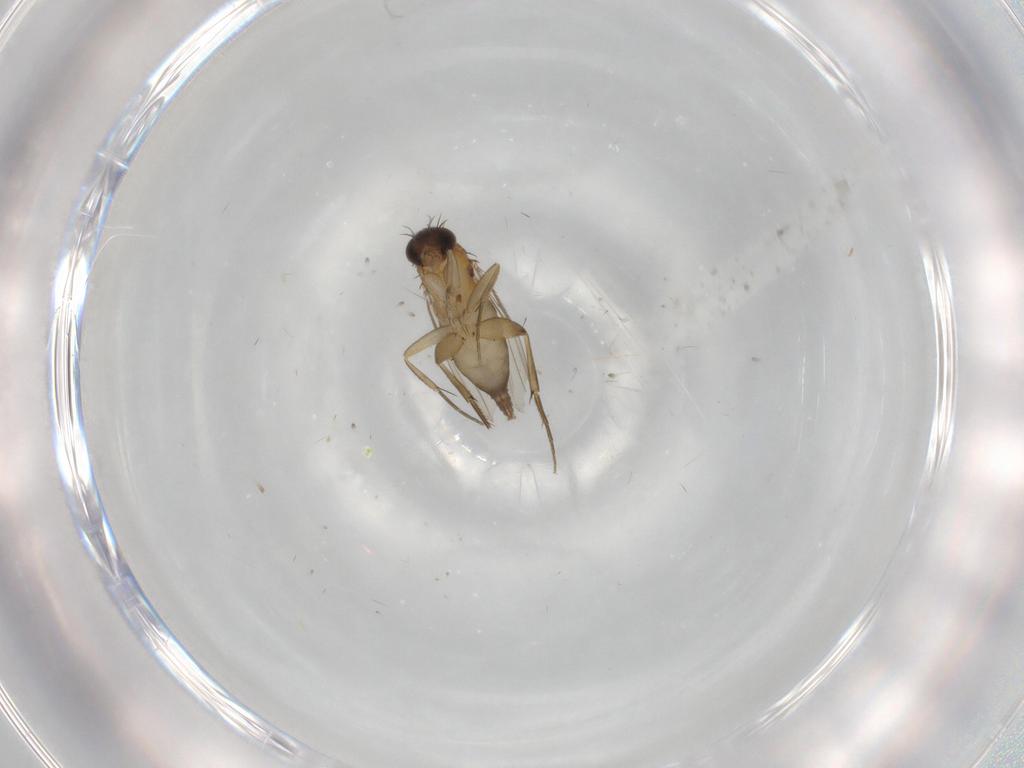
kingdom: Animalia
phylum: Arthropoda
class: Insecta
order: Diptera
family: Phoridae
